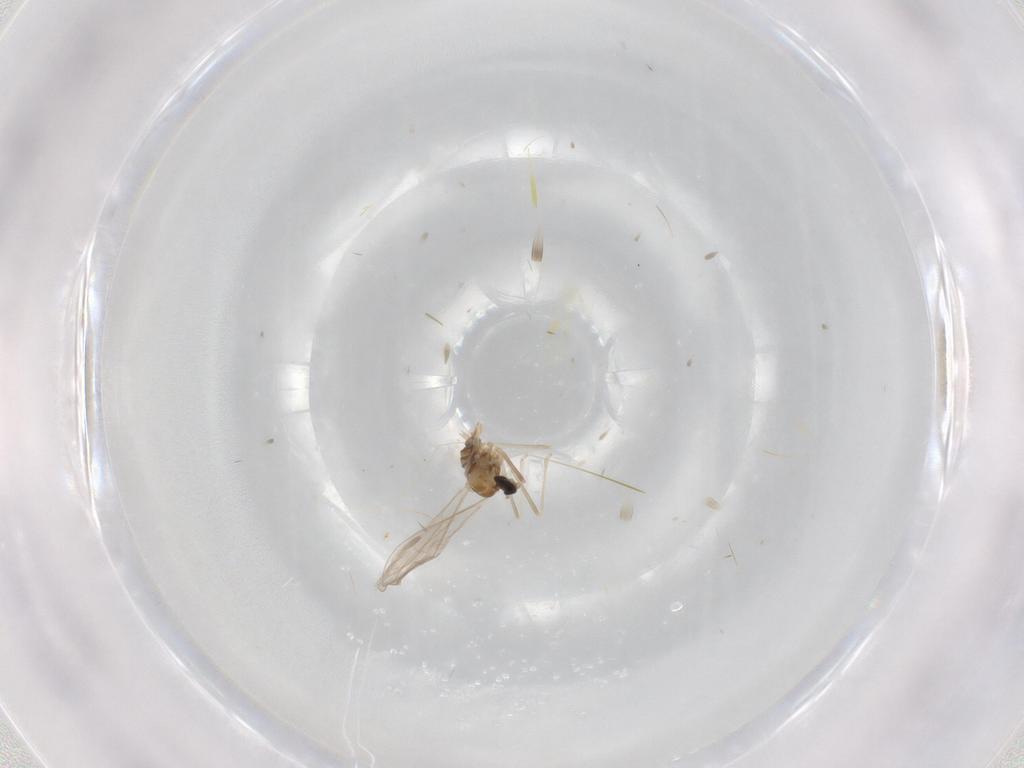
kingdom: Animalia
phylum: Arthropoda
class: Insecta
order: Diptera
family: Cecidomyiidae
